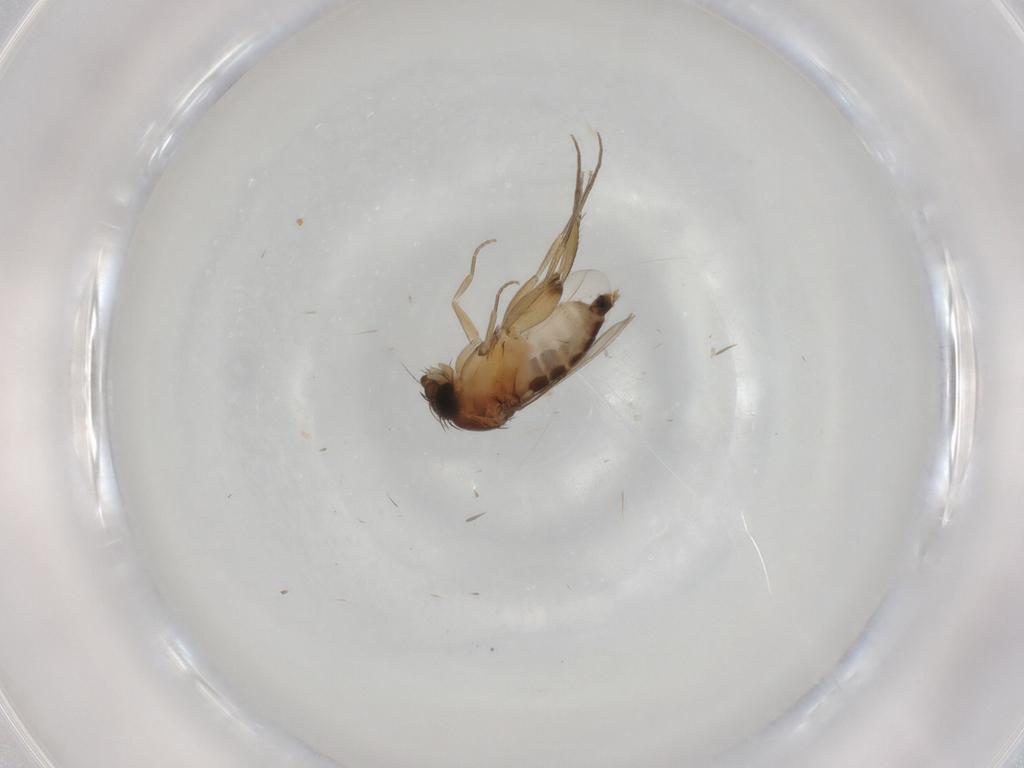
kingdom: Animalia
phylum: Arthropoda
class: Insecta
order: Diptera
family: Phoridae
